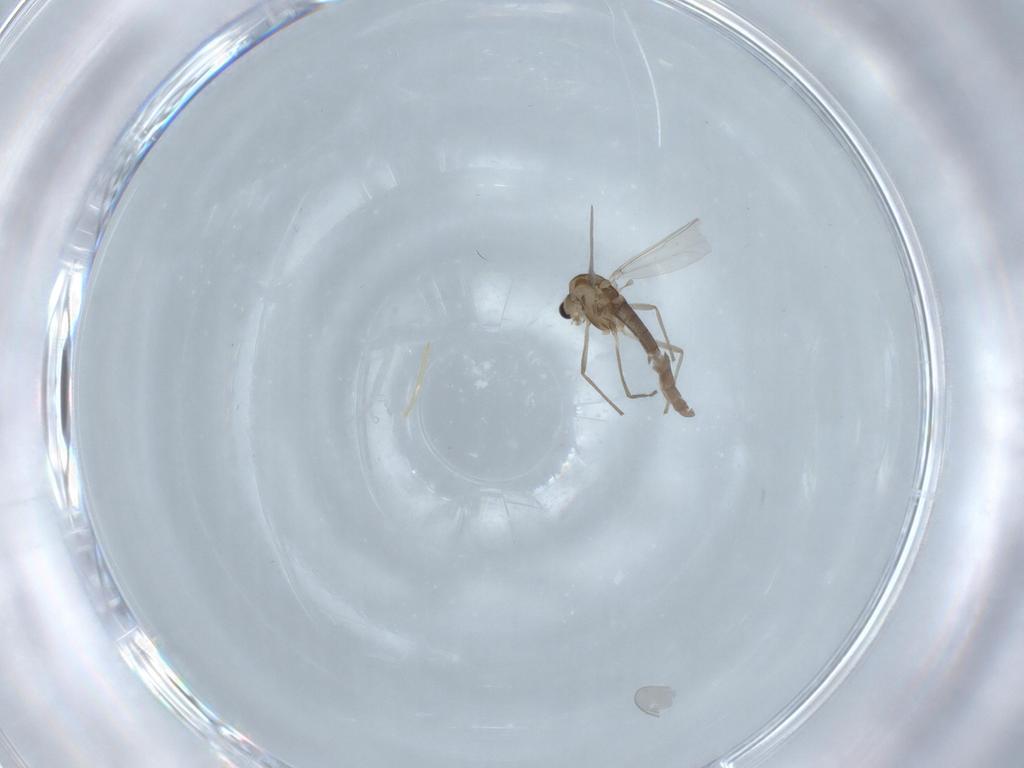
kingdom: Animalia
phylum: Arthropoda
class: Insecta
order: Diptera
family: Chironomidae
